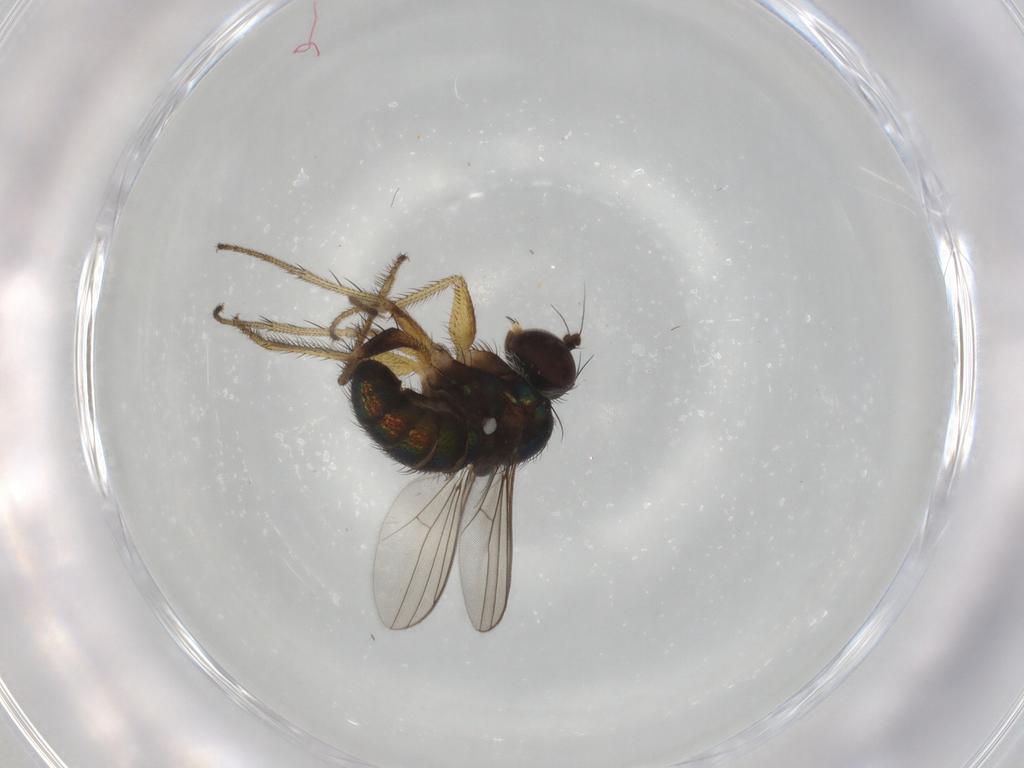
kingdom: Animalia
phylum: Arthropoda
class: Insecta
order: Diptera
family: Dolichopodidae
